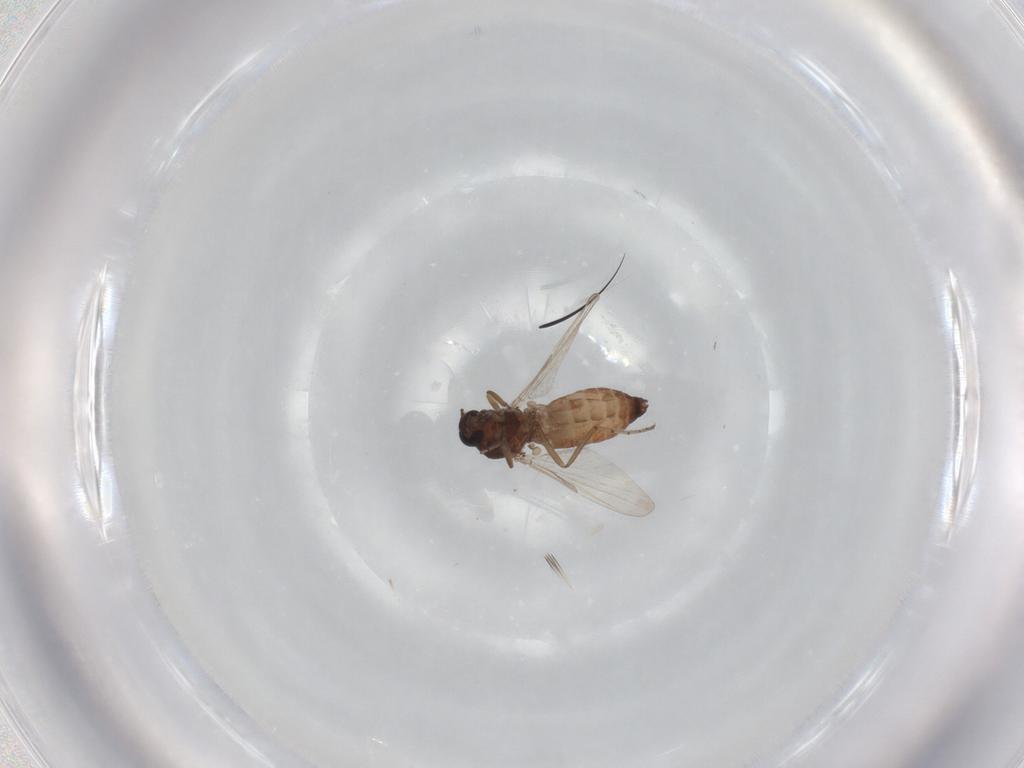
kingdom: Animalia
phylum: Arthropoda
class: Insecta
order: Diptera
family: Ceratopogonidae
